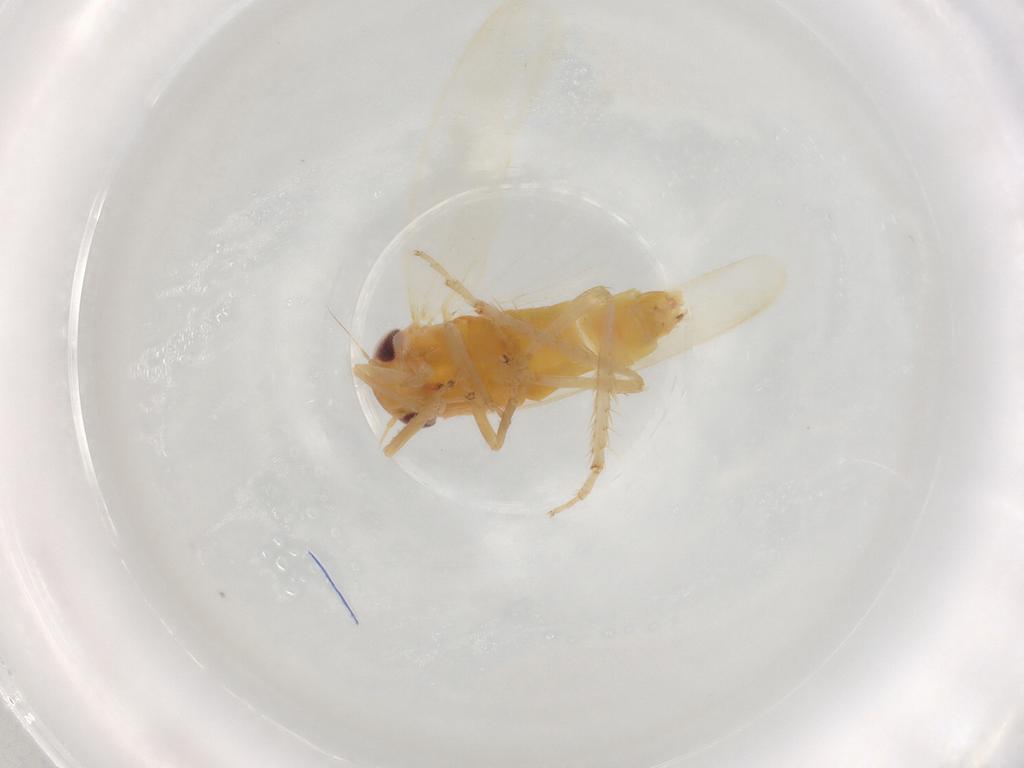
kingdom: Animalia
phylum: Arthropoda
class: Insecta
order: Hemiptera
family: Cicadellidae
